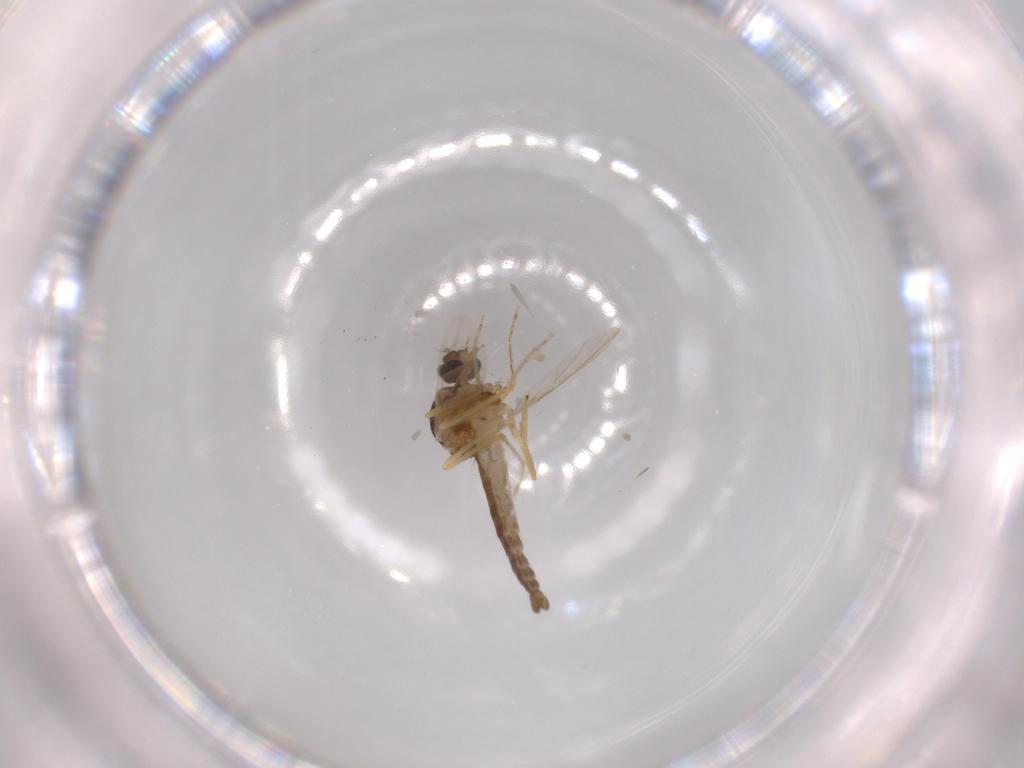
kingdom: Animalia
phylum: Arthropoda
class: Insecta
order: Diptera
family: Ceratopogonidae
